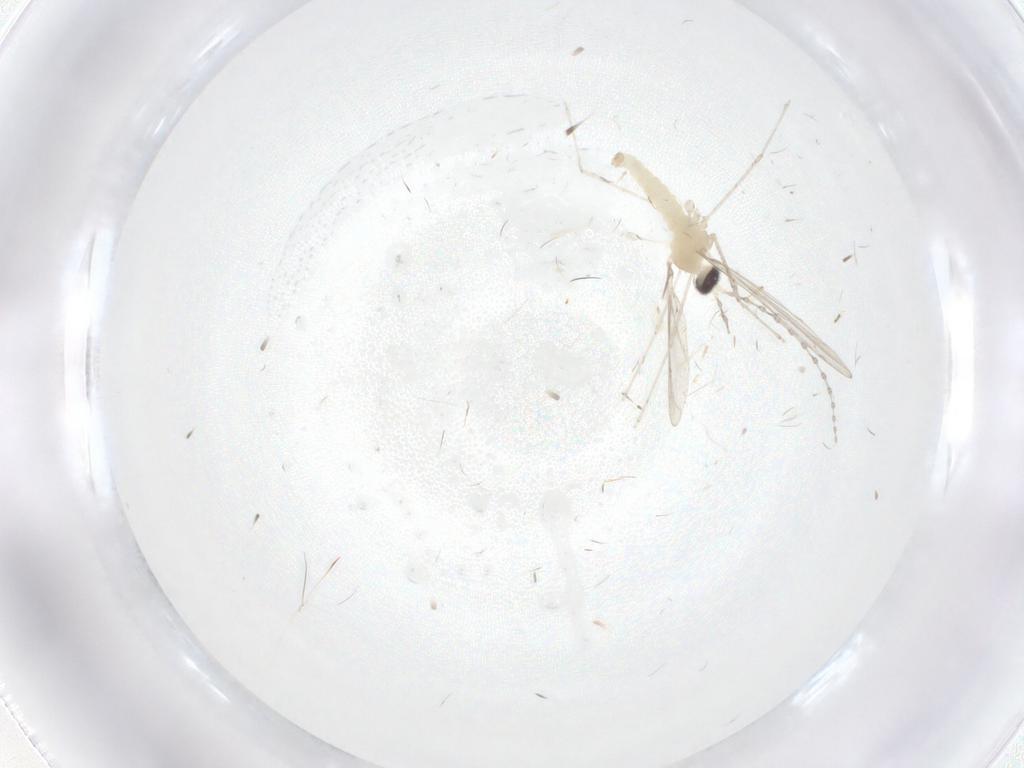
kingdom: Animalia
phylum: Arthropoda
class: Insecta
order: Diptera
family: Cecidomyiidae
